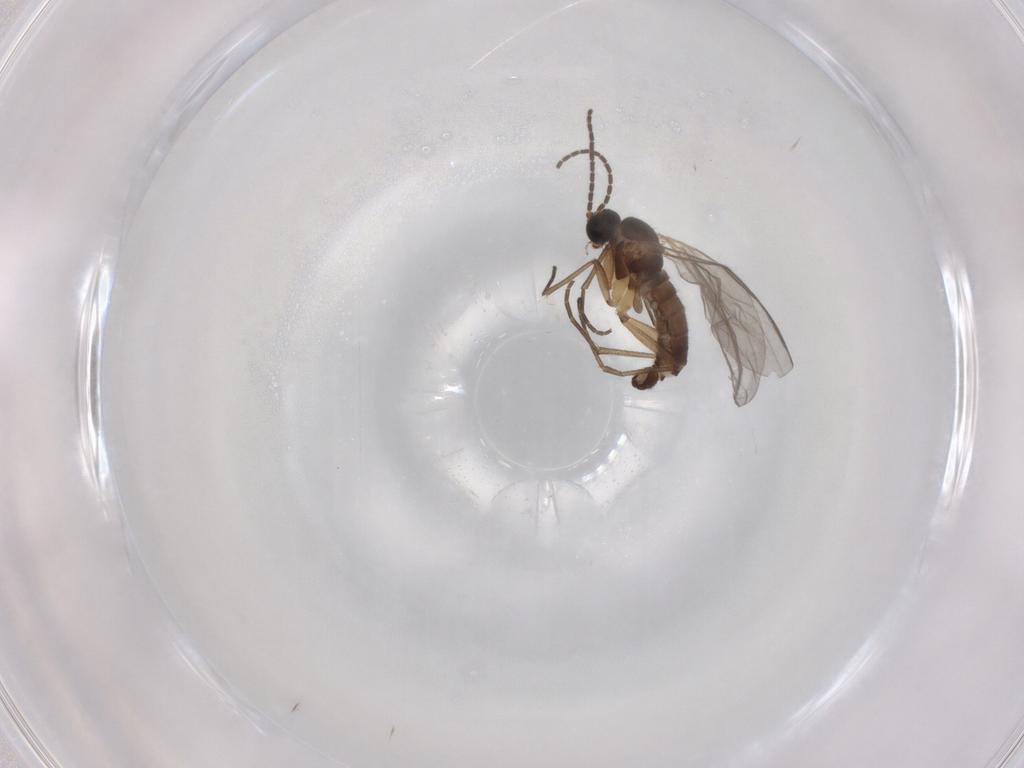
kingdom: Animalia
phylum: Arthropoda
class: Insecta
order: Diptera
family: Sciaridae
